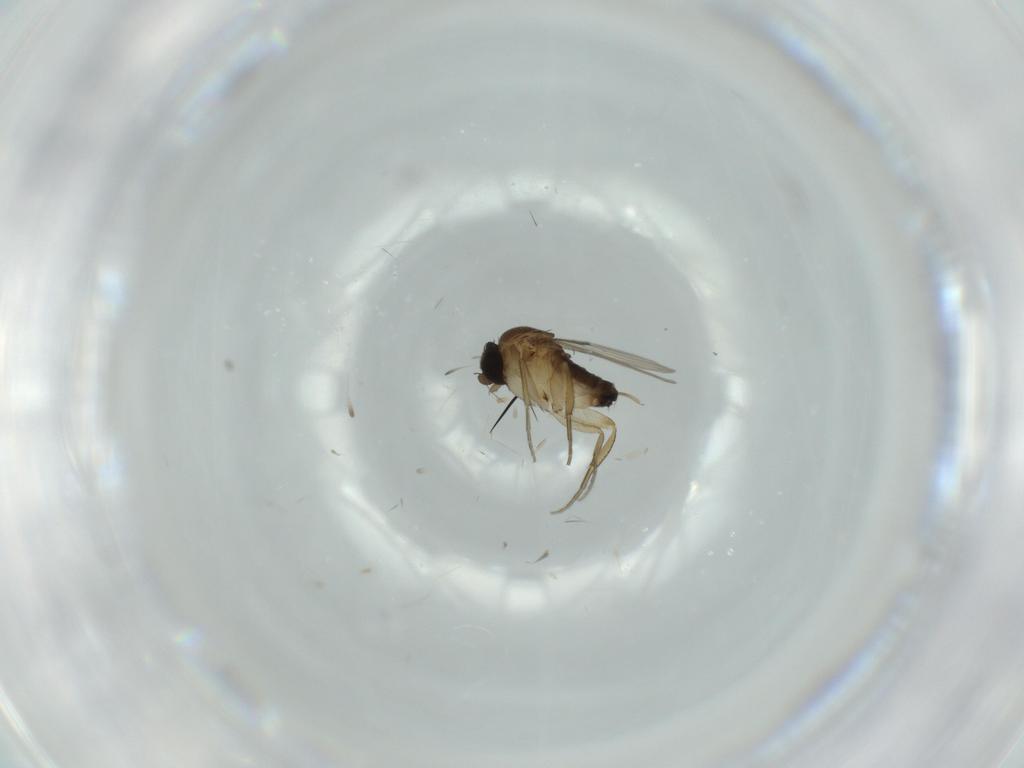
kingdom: Animalia
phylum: Arthropoda
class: Insecta
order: Diptera
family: Phoridae
